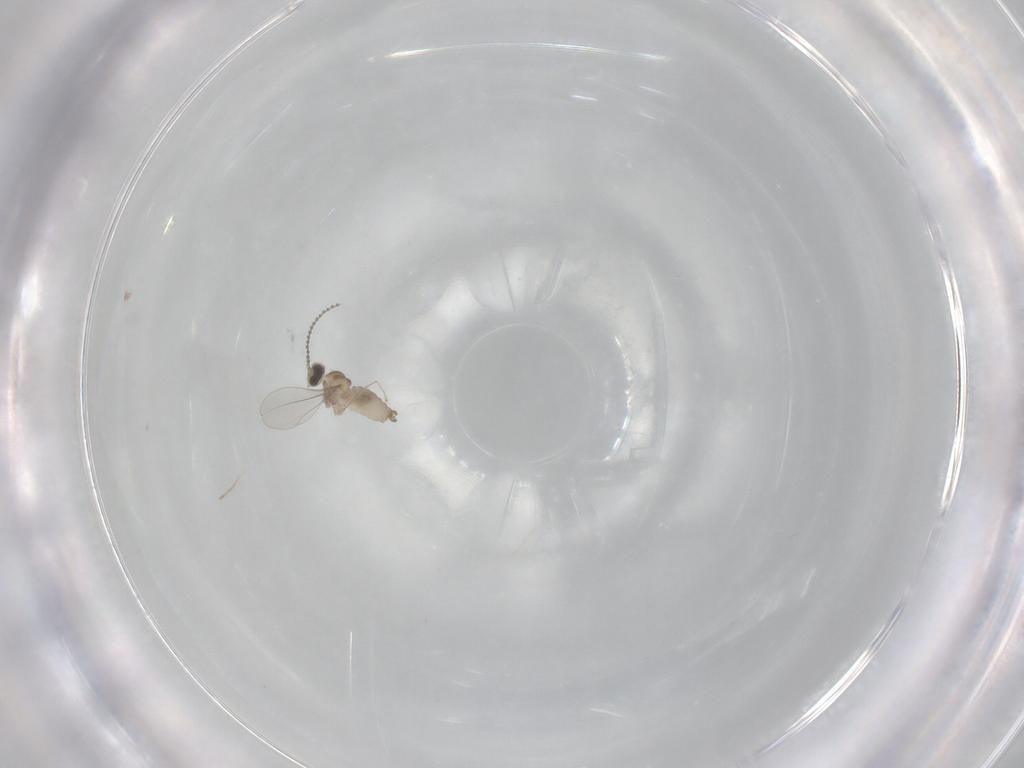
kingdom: Animalia
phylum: Arthropoda
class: Insecta
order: Diptera
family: Cecidomyiidae
